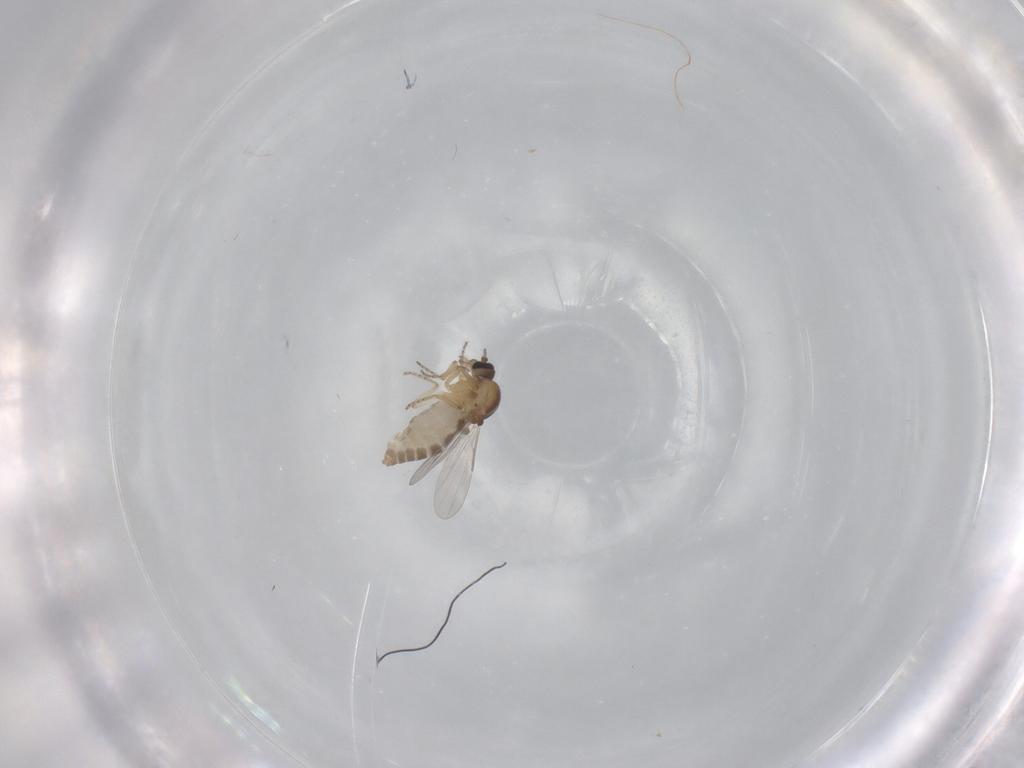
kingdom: Animalia
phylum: Arthropoda
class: Insecta
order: Diptera
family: Ceratopogonidae
